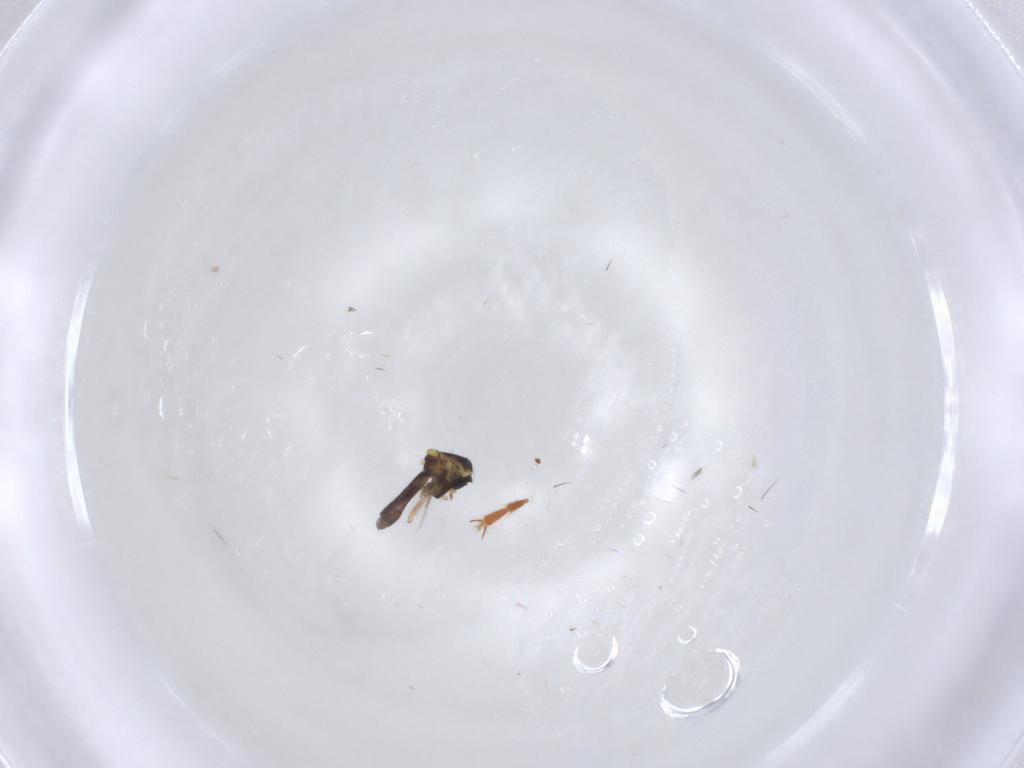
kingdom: Animalia
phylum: Arthropoda
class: Insecta
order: Diptera
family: Ceratopogonidae
